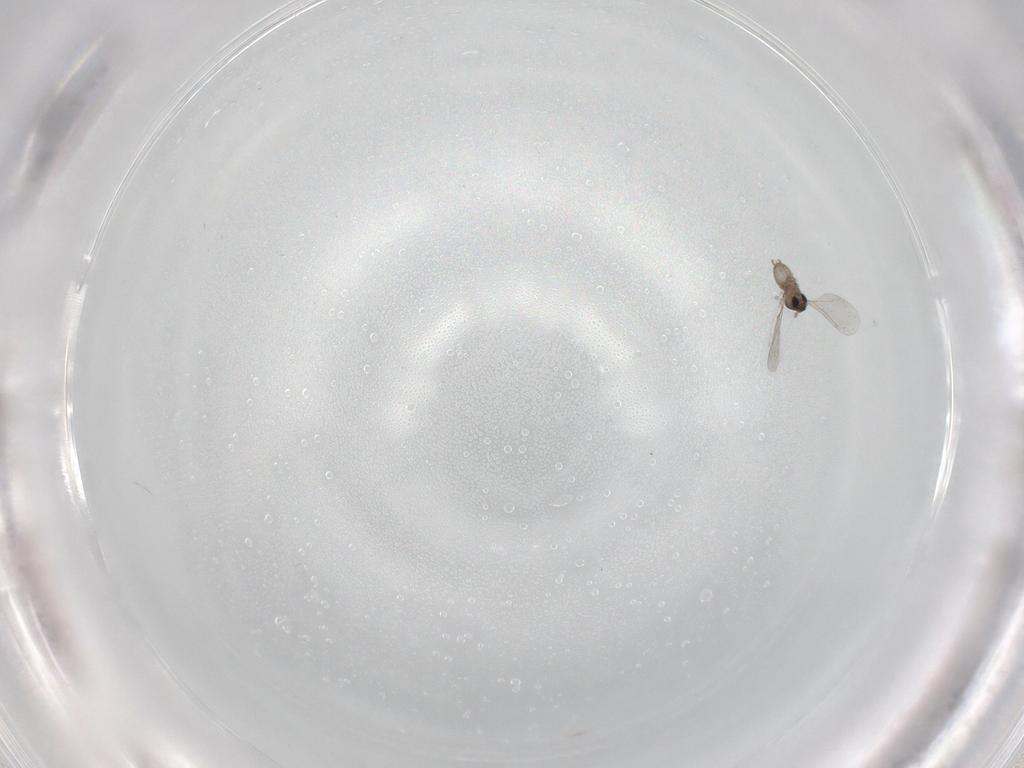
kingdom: Animalia
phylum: Arthropoda
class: Insecta
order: Diptera
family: Cecidomyiidae
